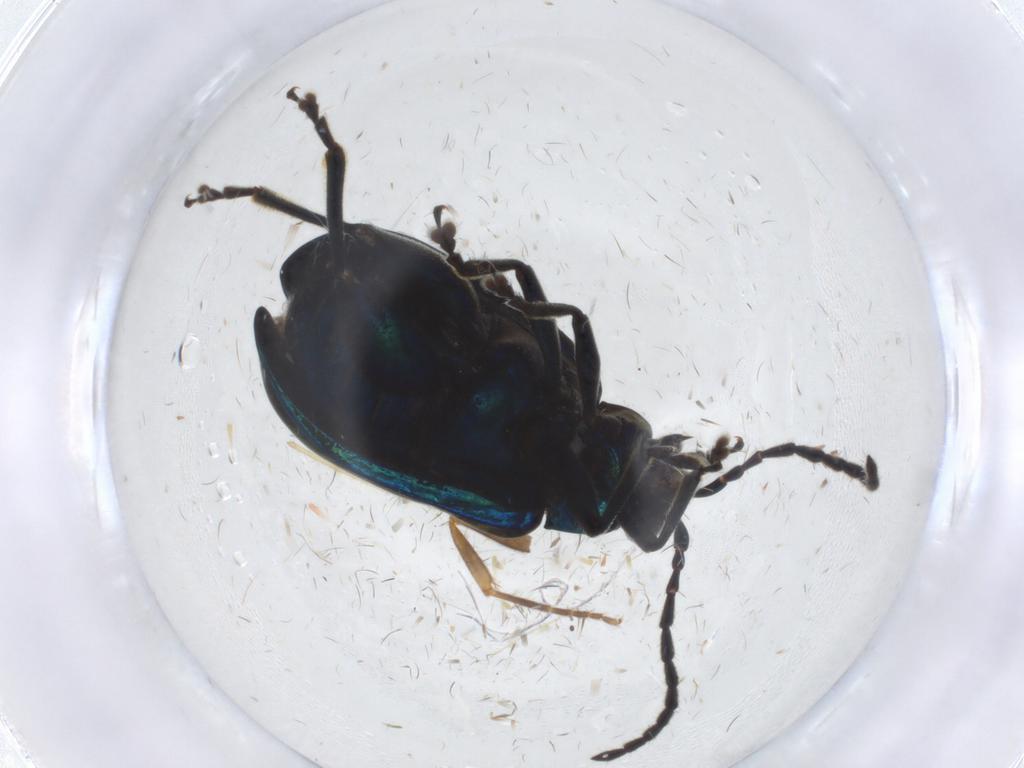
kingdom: Animalia
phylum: Arthropoda
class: Insecta
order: Coleoptera
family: Chrysomelidae
